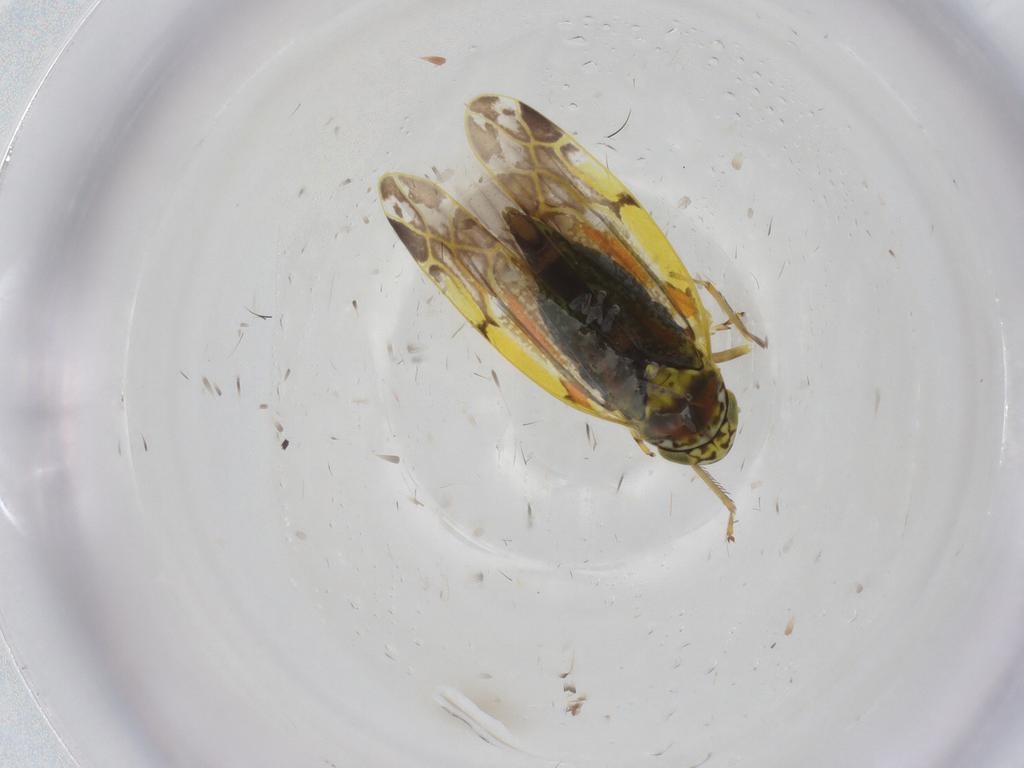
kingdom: Animalia
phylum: Arthropoda
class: Insecta
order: Hemiptera
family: Cicadellidae
